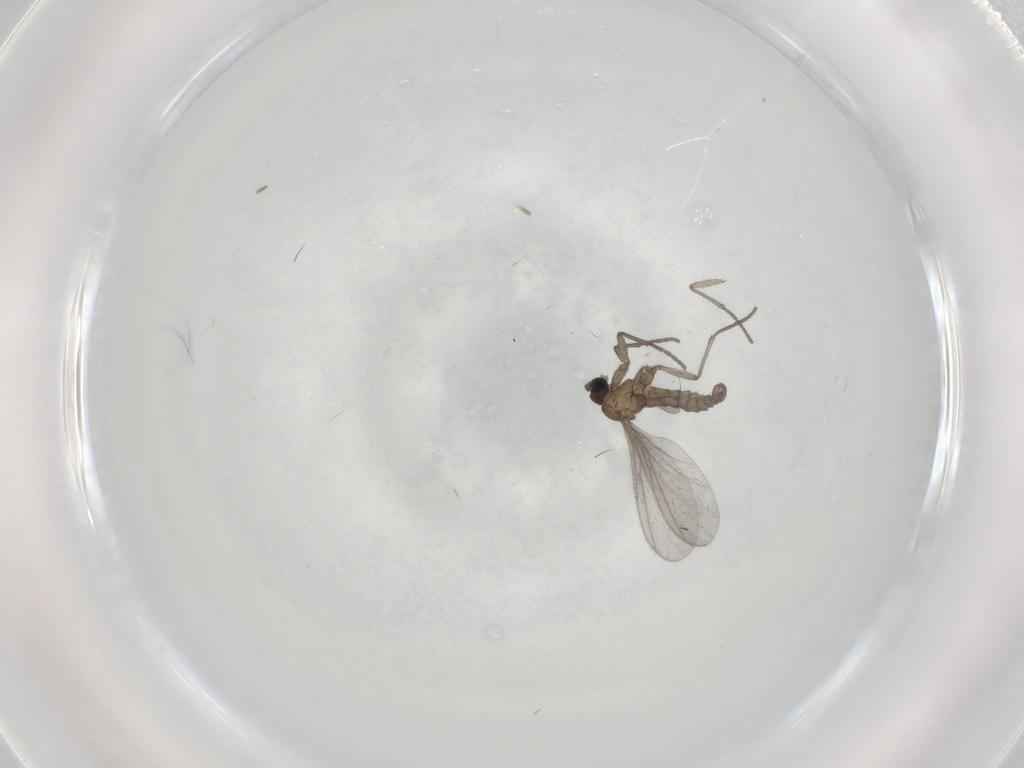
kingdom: Animalia
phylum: Arthropoda
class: Insecta
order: Diptera
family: Sciaridae
